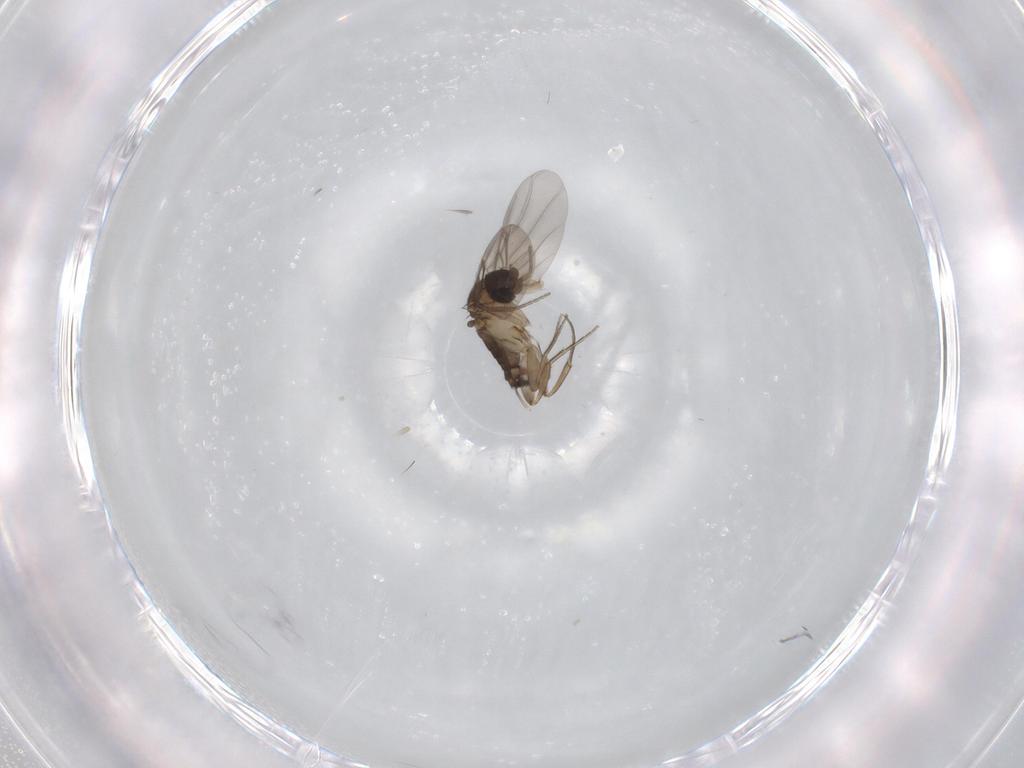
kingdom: Animalia
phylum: Arthropoda
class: Insecta
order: Diptera
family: Phoridae
